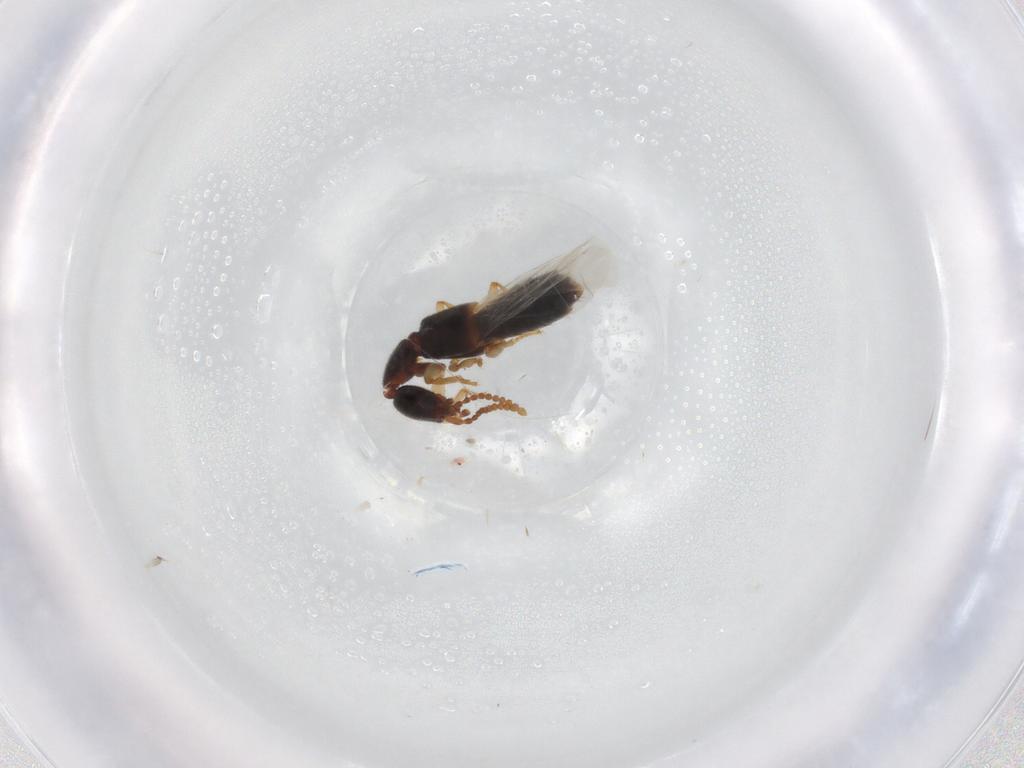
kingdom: Animalia
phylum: Arthropoda
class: Insecta
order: Coleoptera
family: Staphylinidae
